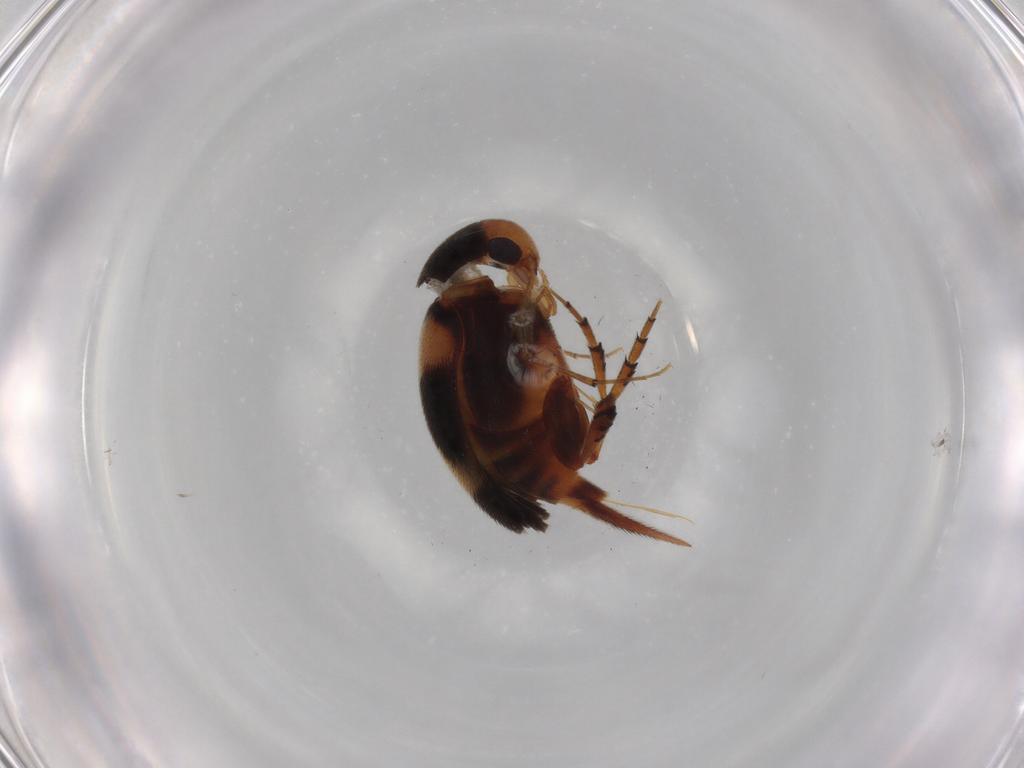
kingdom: Animalia
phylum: Arthropoda
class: Insecta
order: Coleoptera
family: Mordellidae
